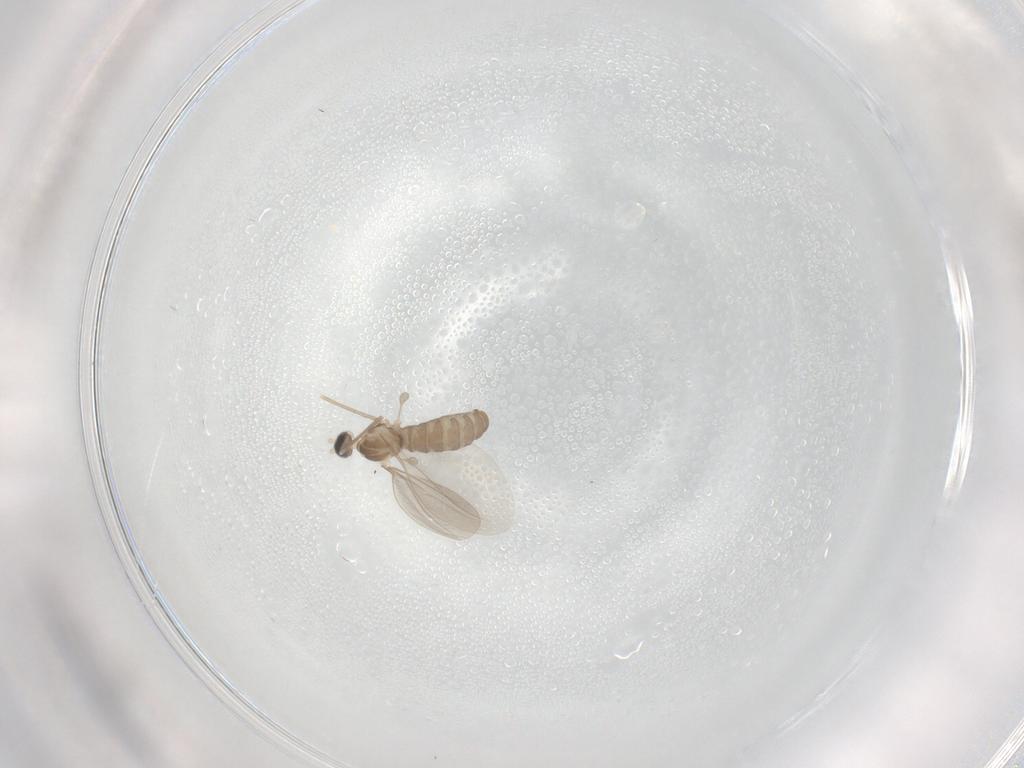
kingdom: Animalia
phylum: Arthropoda
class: Insecta
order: Diptera
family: Cecidomyiidae
